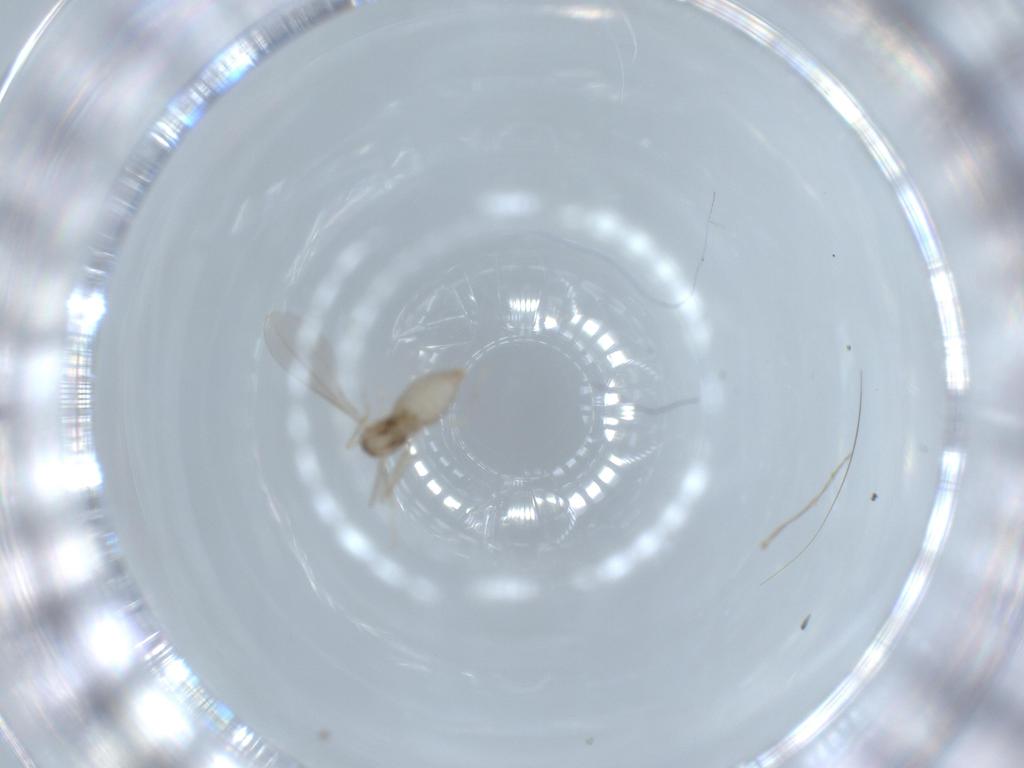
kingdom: Animalia
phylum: Arthropoda
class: Insecta
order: Diptera
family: Cecidomyiidae
